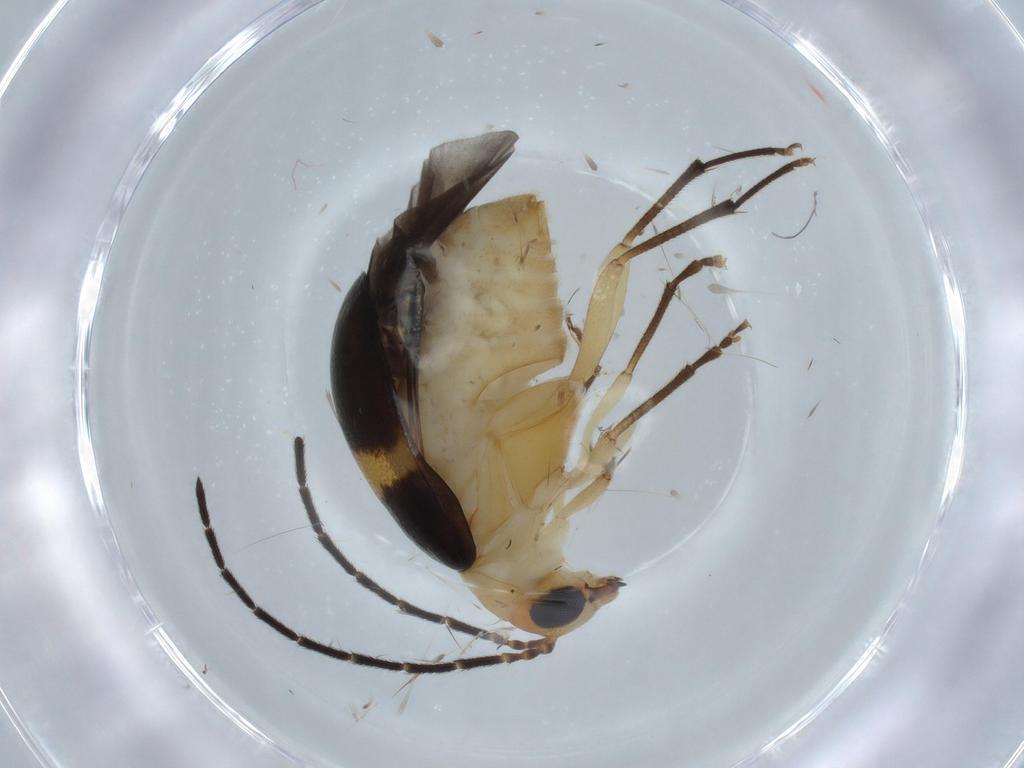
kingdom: Animalia
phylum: Arthropoda
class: Insecta
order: Coleoptera
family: Chrysomelidae
